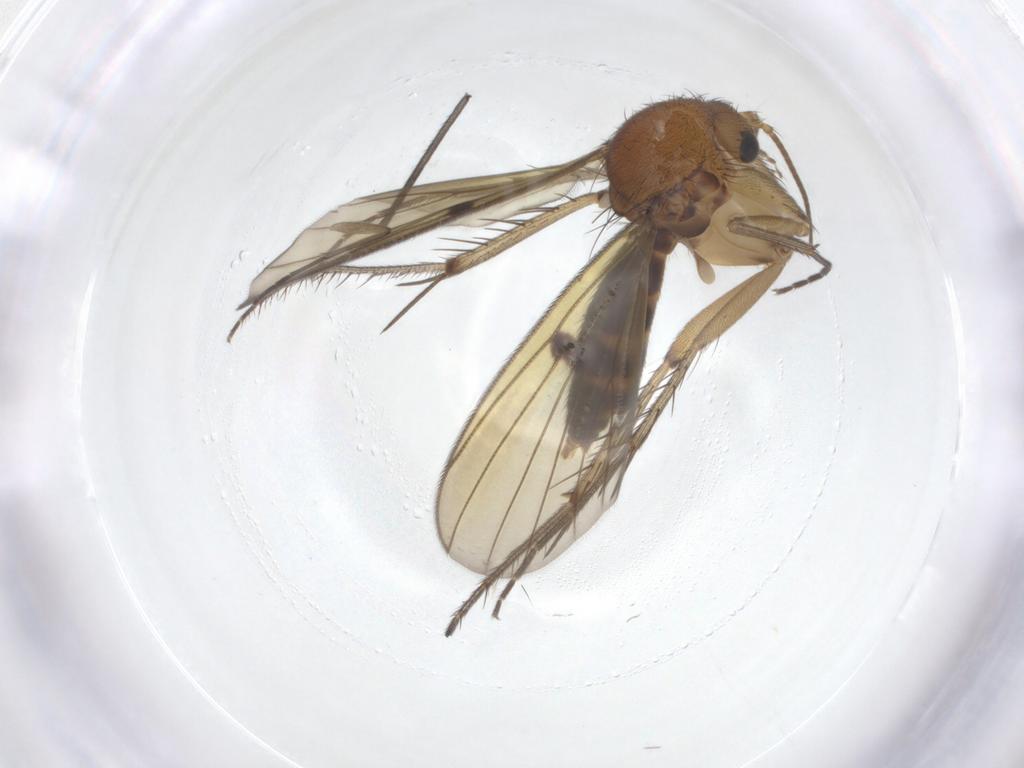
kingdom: Animalia
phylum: Arthropoda
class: Insecta
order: Diptera
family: Sciaridae
